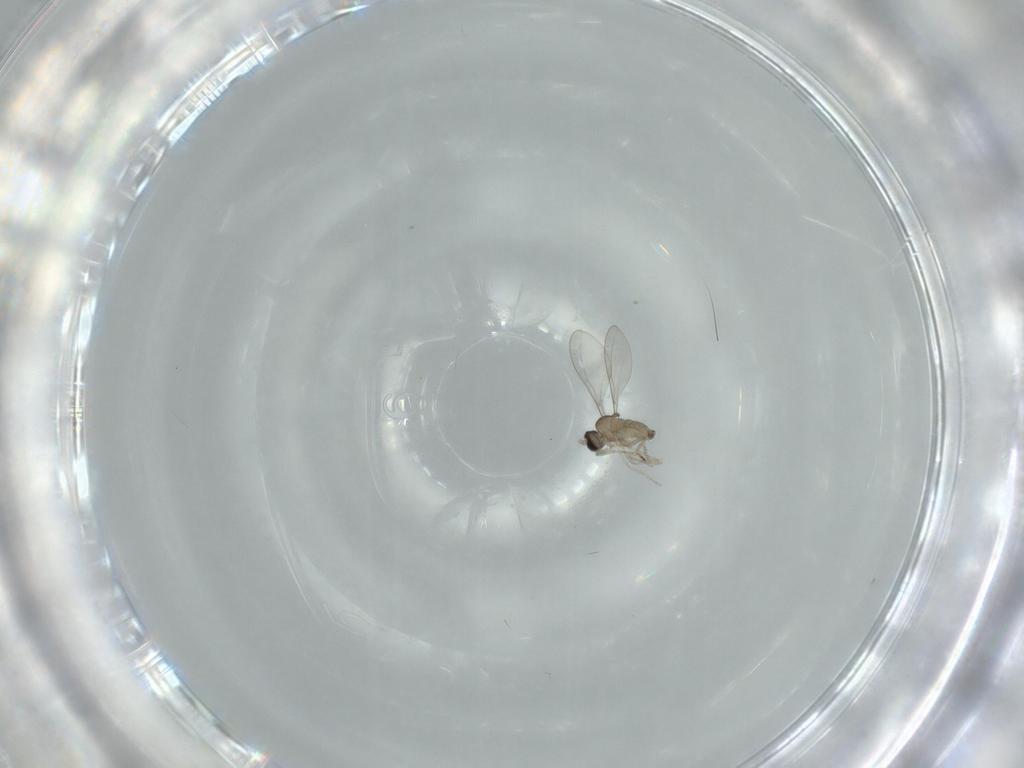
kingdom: Animalia
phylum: Arthropoda
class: Insecta
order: Diptera
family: Cecidomyiidae
